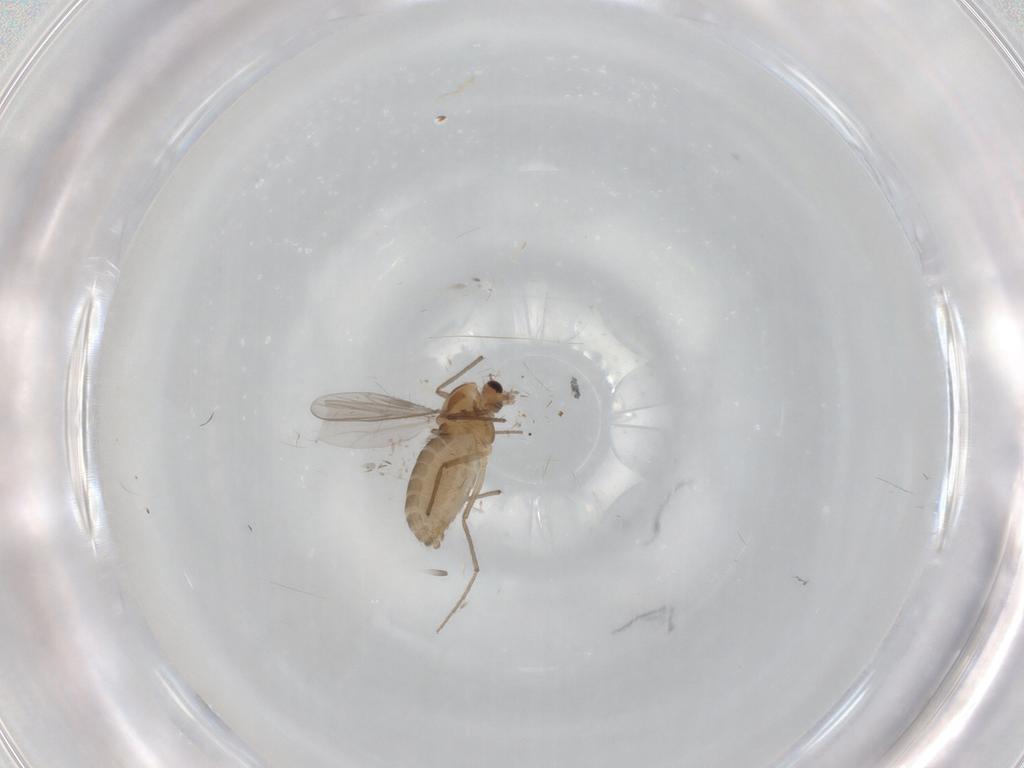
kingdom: Animalia
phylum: Arthropoda
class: Insecta
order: Diptera
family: Chironomidae
